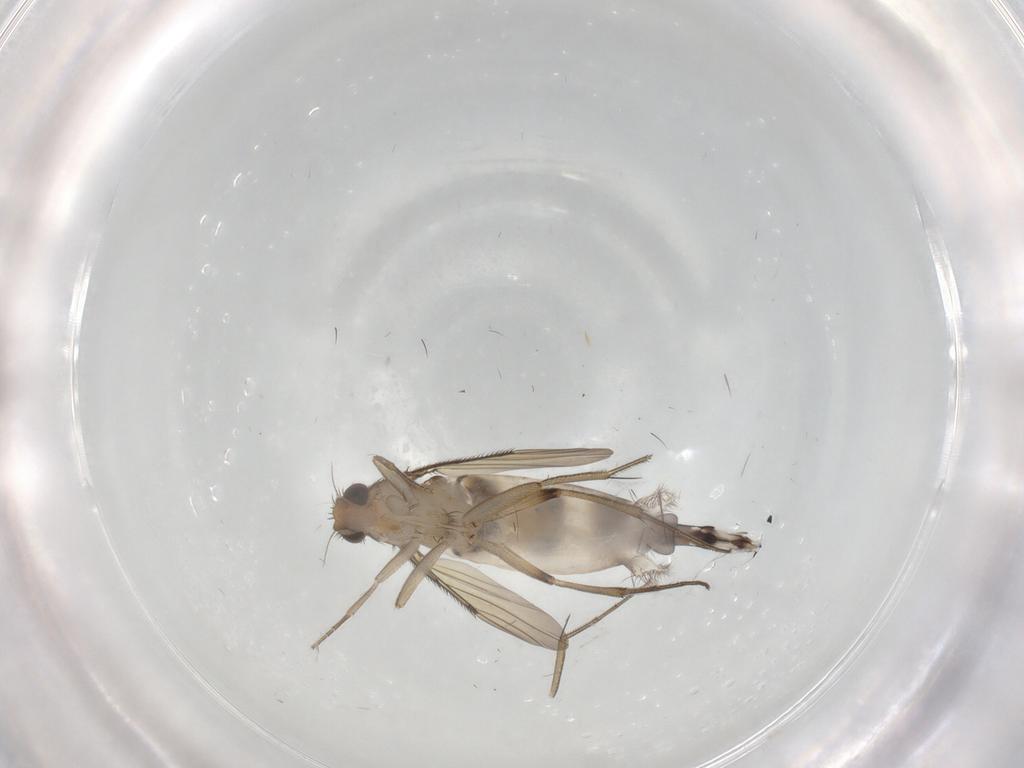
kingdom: Animalia
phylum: Arthropoda
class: Insecta
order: Diptera
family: Phoridae
